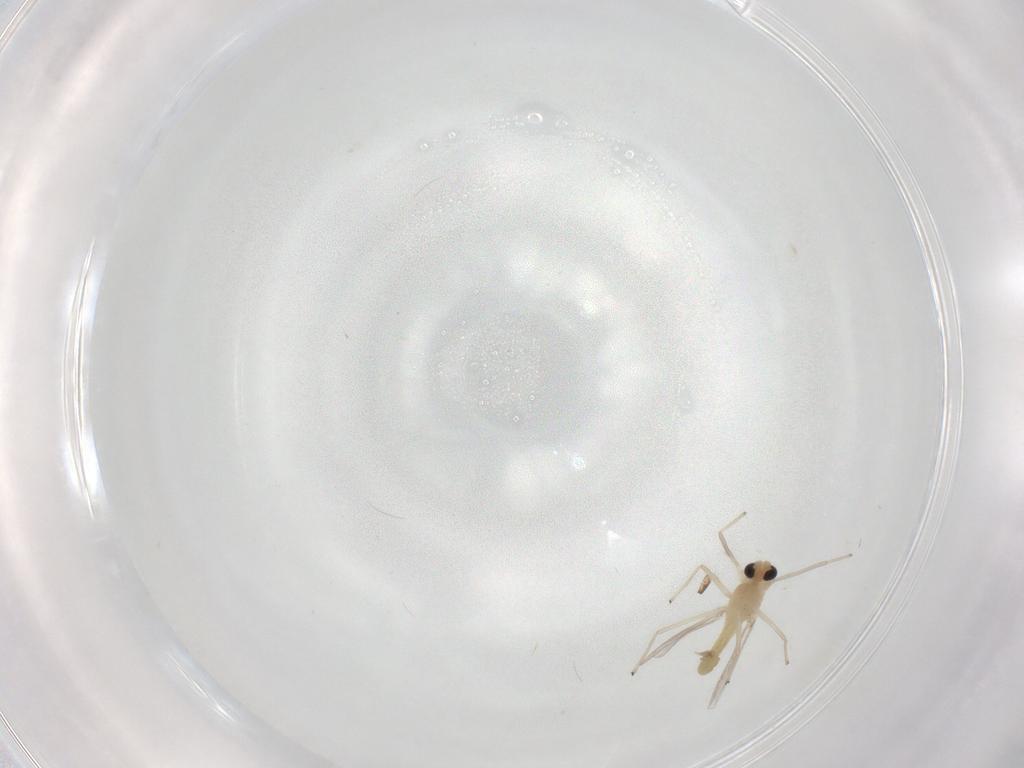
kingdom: Animalia
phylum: Arthropoda
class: Insecta
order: Diptera
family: Chironomidae
